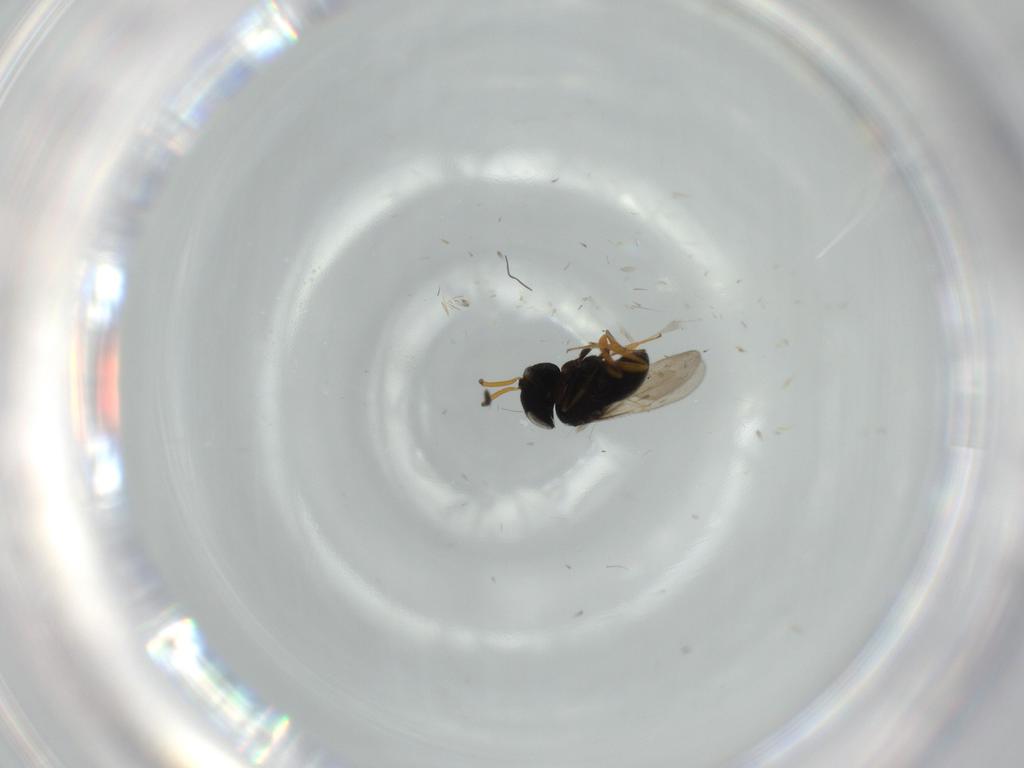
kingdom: Animalia
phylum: Arthropoda
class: Insecta
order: Hymenoptera
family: Scelionidae
